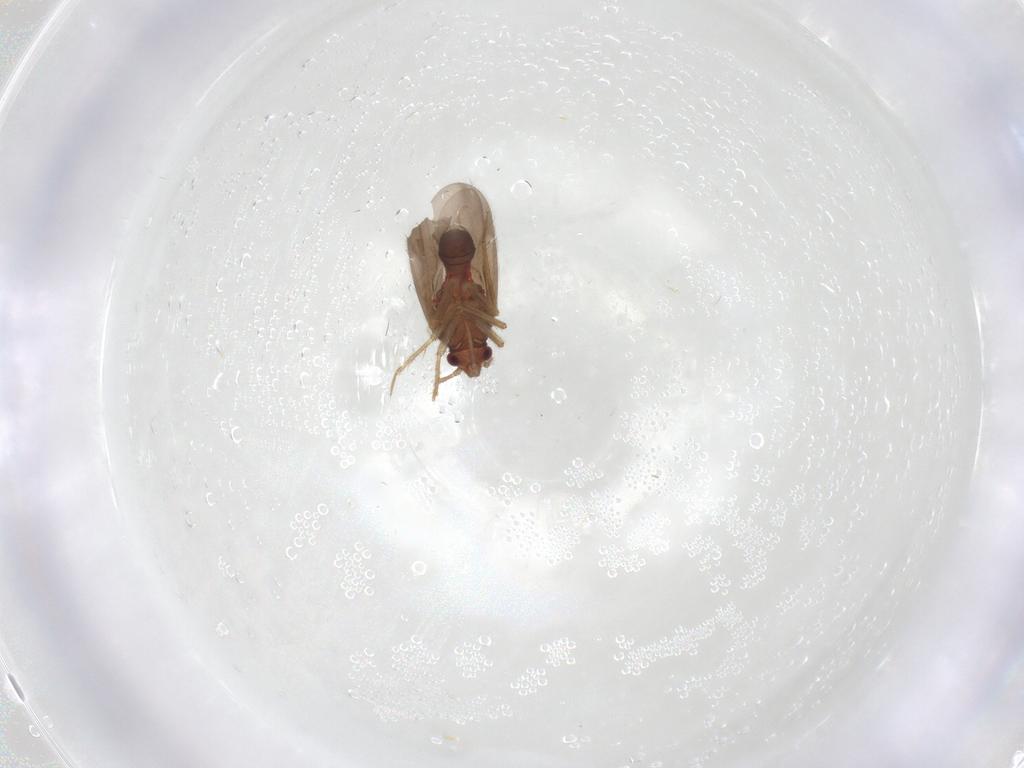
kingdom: Animalia
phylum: Arthropoda
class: Insecta
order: Hemiptera
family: Ceratocombidae
